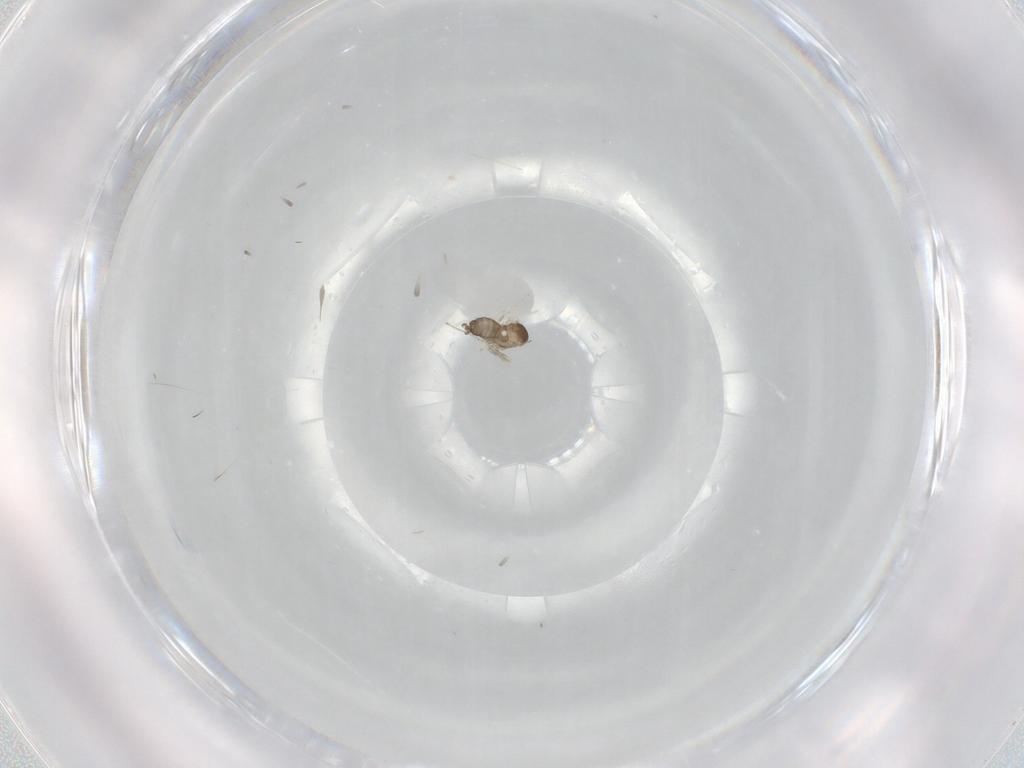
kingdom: Animalia
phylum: Arthropoda
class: Insecta
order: Diptera
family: Cecidomyiidae
